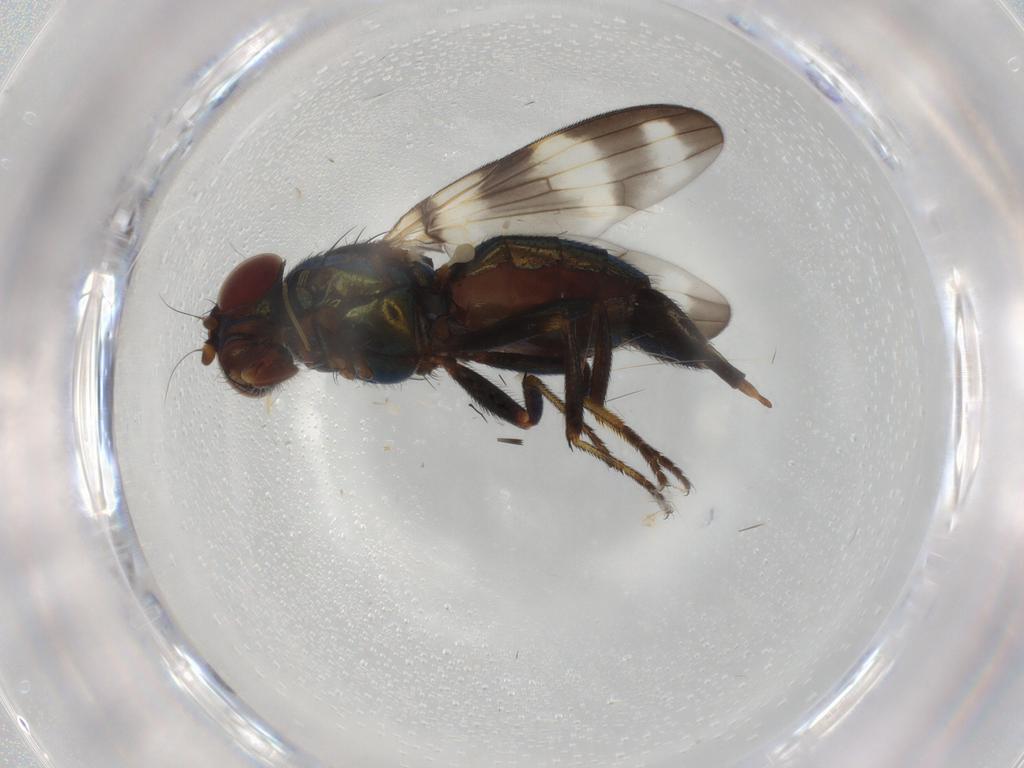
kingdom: Animalia
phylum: Arthropoda
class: Insecta
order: Diptera
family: Ulidiidae
